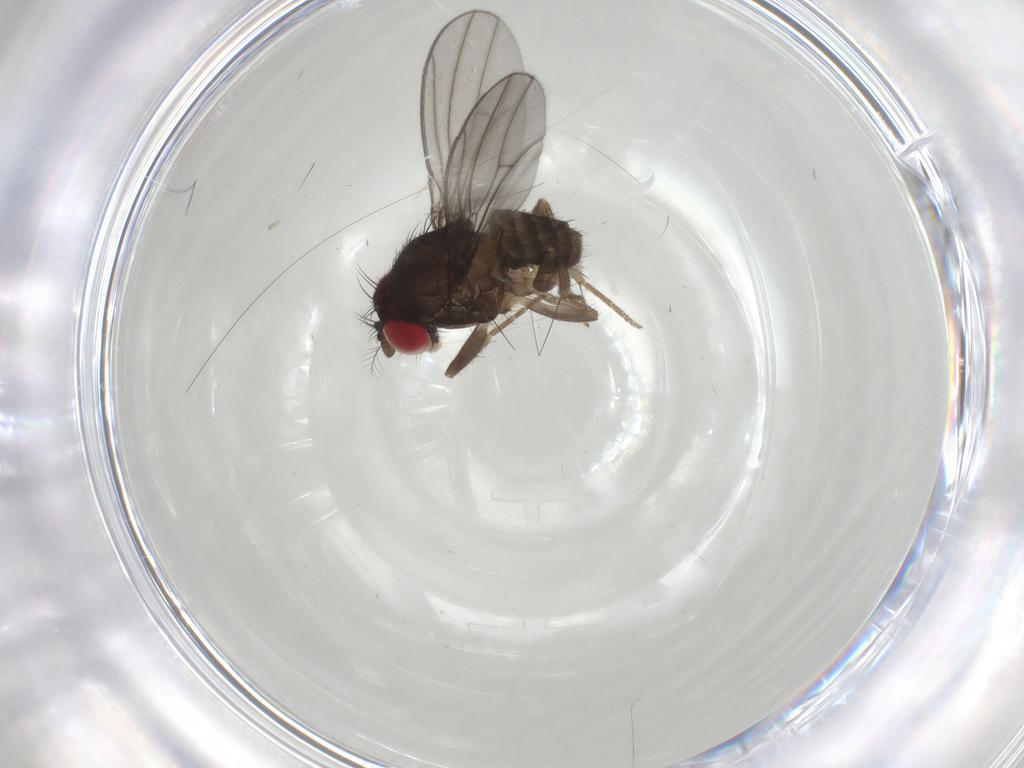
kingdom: Animalia
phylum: Arthropoda
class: Insecta
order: Diptera
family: Drosophilidae
